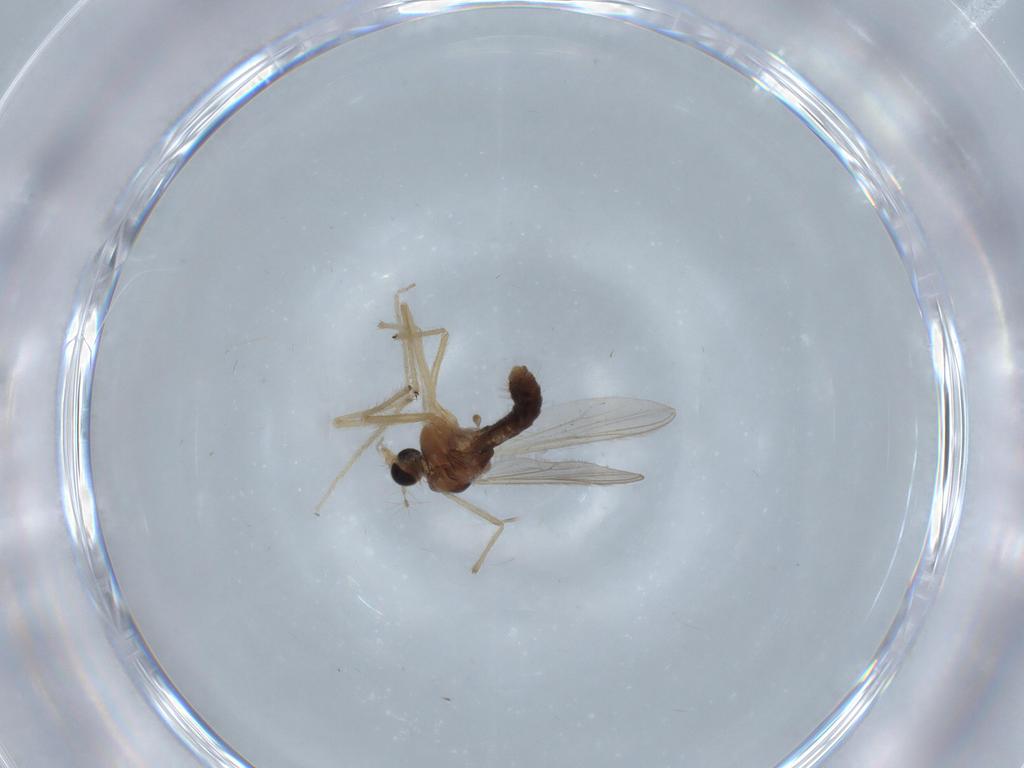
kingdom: Animalia
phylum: Arthropoda
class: Insecta
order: Diptera
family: Chironomidae
